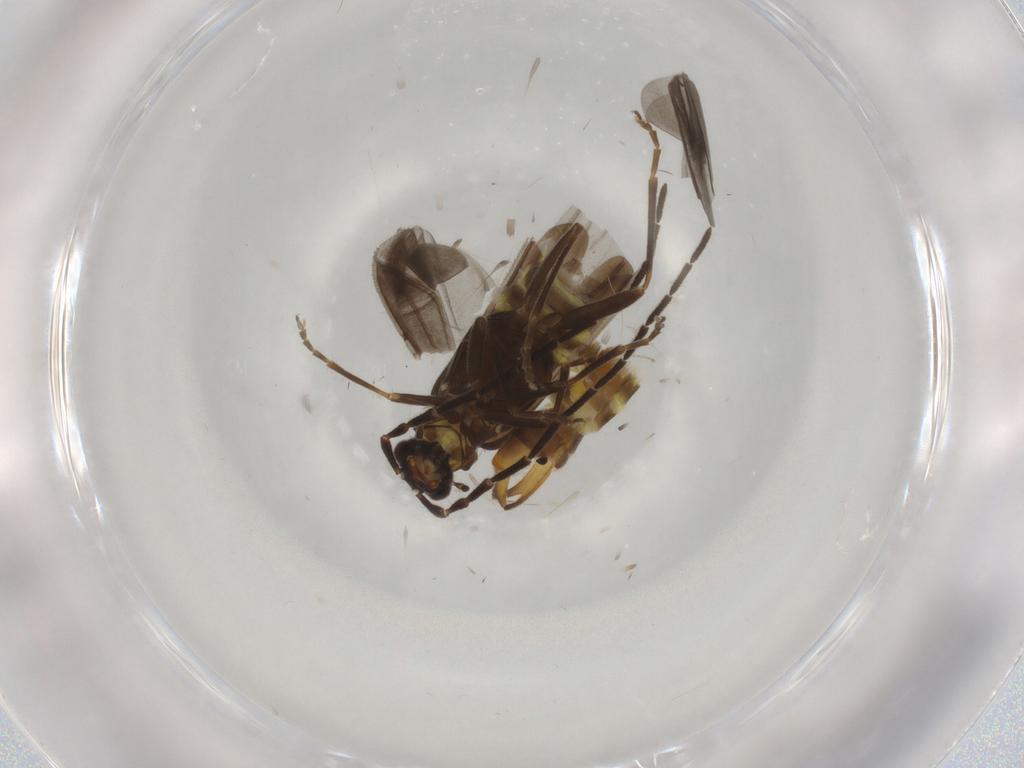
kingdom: Animalia
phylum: Arthropoda
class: Insecta
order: Coleoptera
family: Cantharidae
